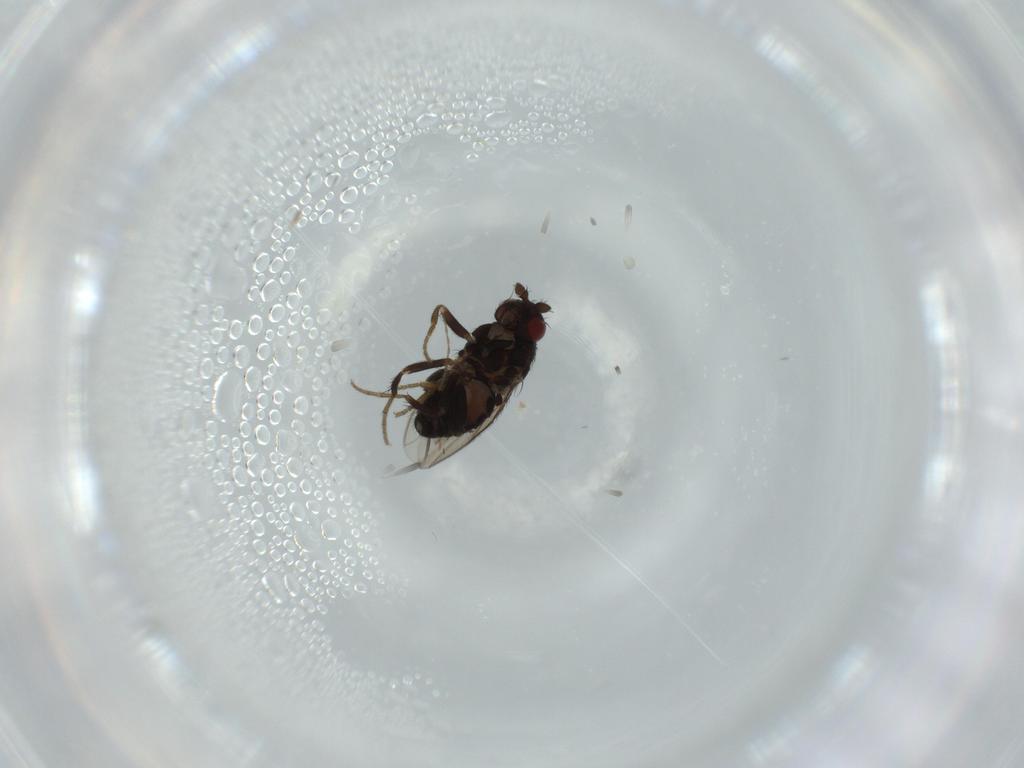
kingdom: Animalia
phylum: Arthropoda
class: Insecta
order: Diptera
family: Cecidomyiidae
